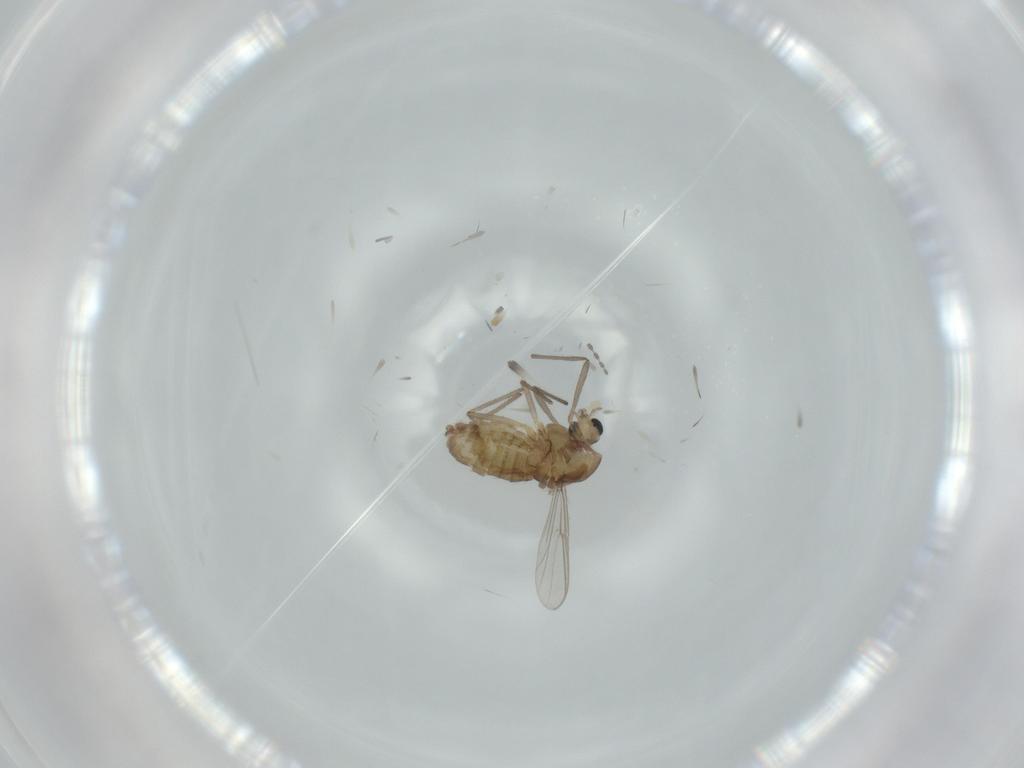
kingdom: Animalia
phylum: Arthropoda
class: Insecta
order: Diptera
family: Chironomidae
